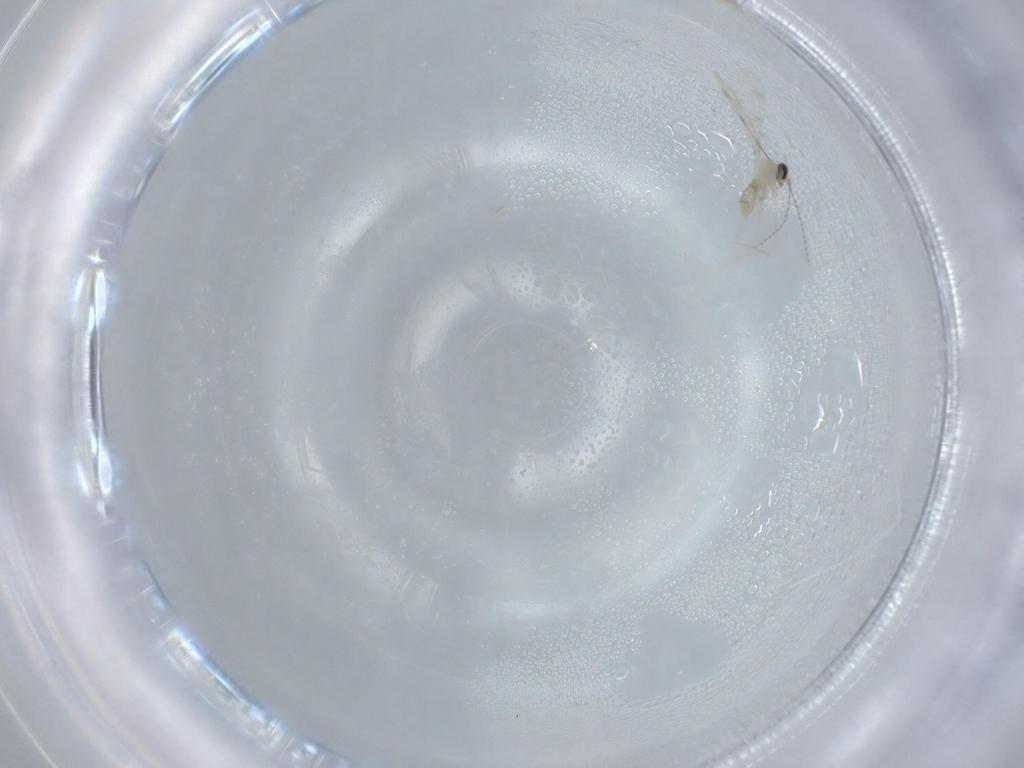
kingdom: Animalia
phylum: Arthropoda
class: Insecta
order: Diptera
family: Cecidomyiidae
